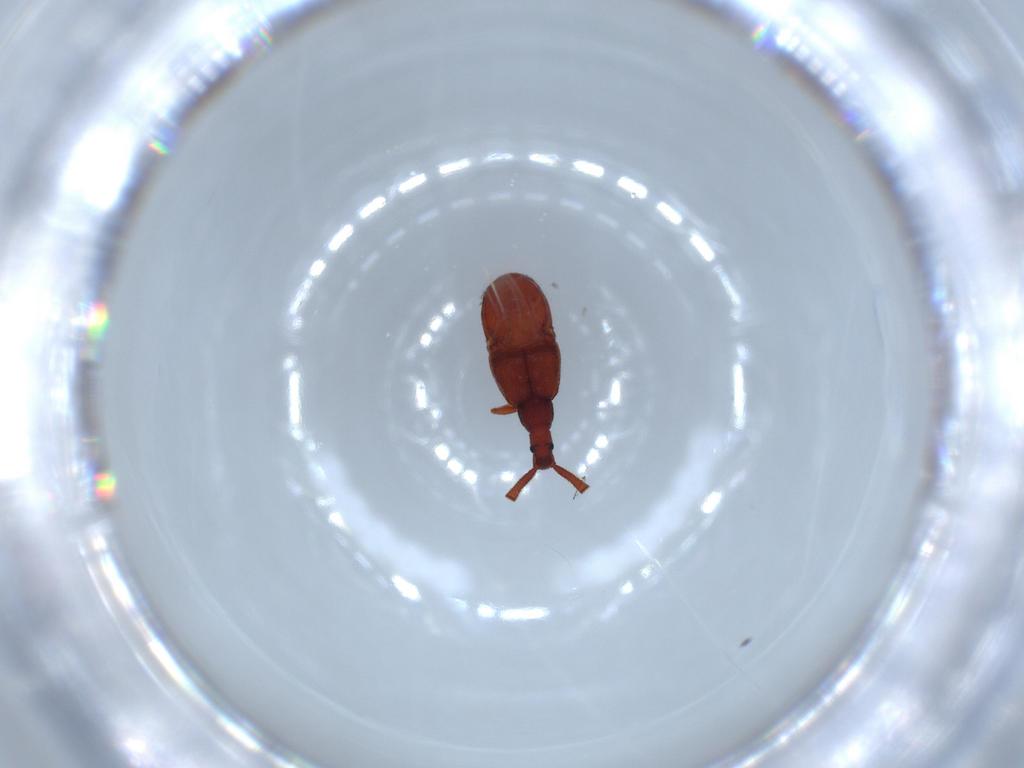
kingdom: Animalia
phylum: Arthropoda
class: Insecta
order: Coleoptera
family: Staphylinidae
